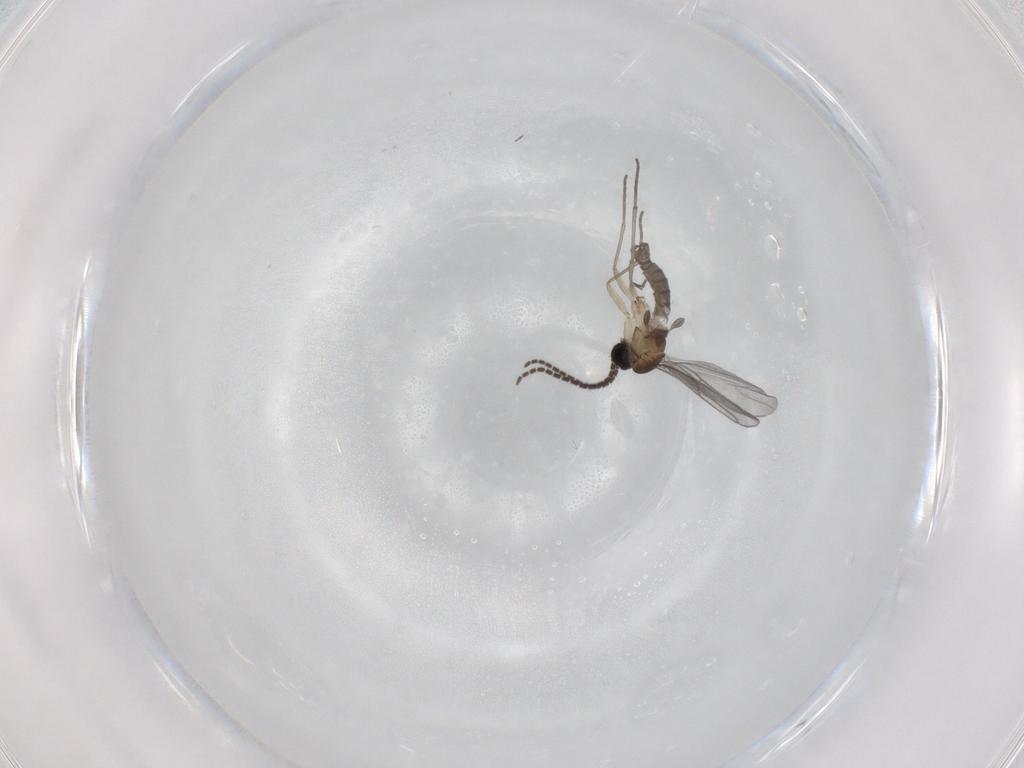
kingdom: Animalia
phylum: Arthropoda
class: Insecta
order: Diptera
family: Sciaridae
